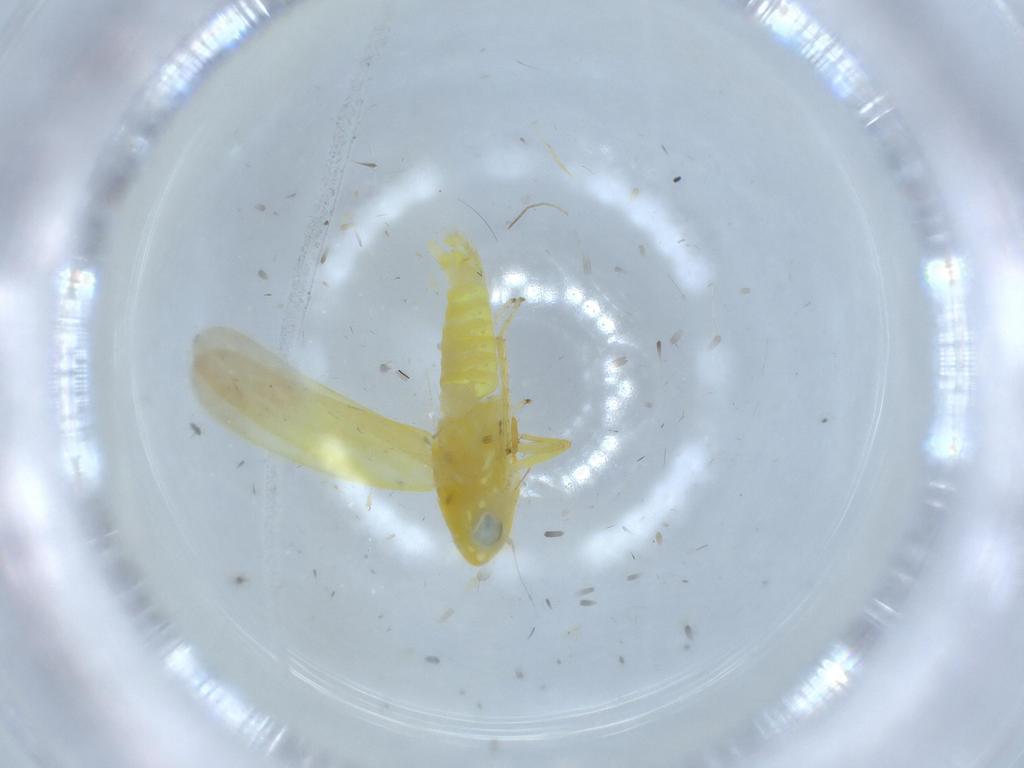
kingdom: Animalia
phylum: Arthropoda
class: Insecta
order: Hemiptera
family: Cicadellidae
